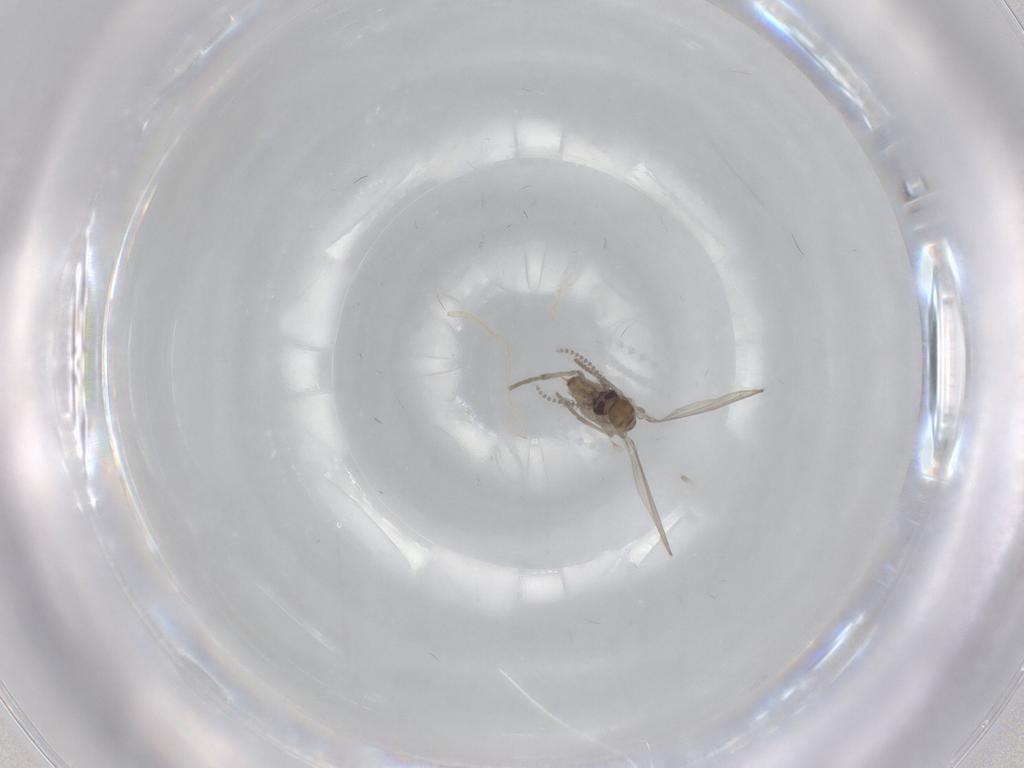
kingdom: Animalia
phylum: Arthropoda
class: Insecta
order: Diptera
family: Psychodidae
